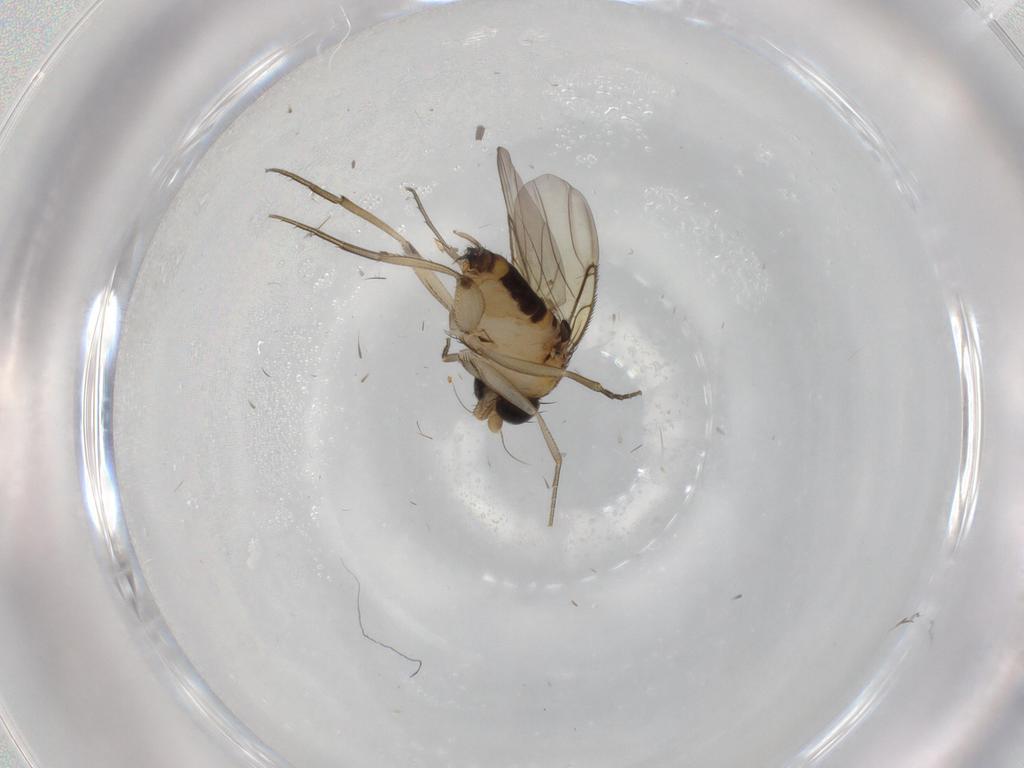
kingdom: Animalia
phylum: Arthropoda
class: Insecta
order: Diptera
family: Phoridae
